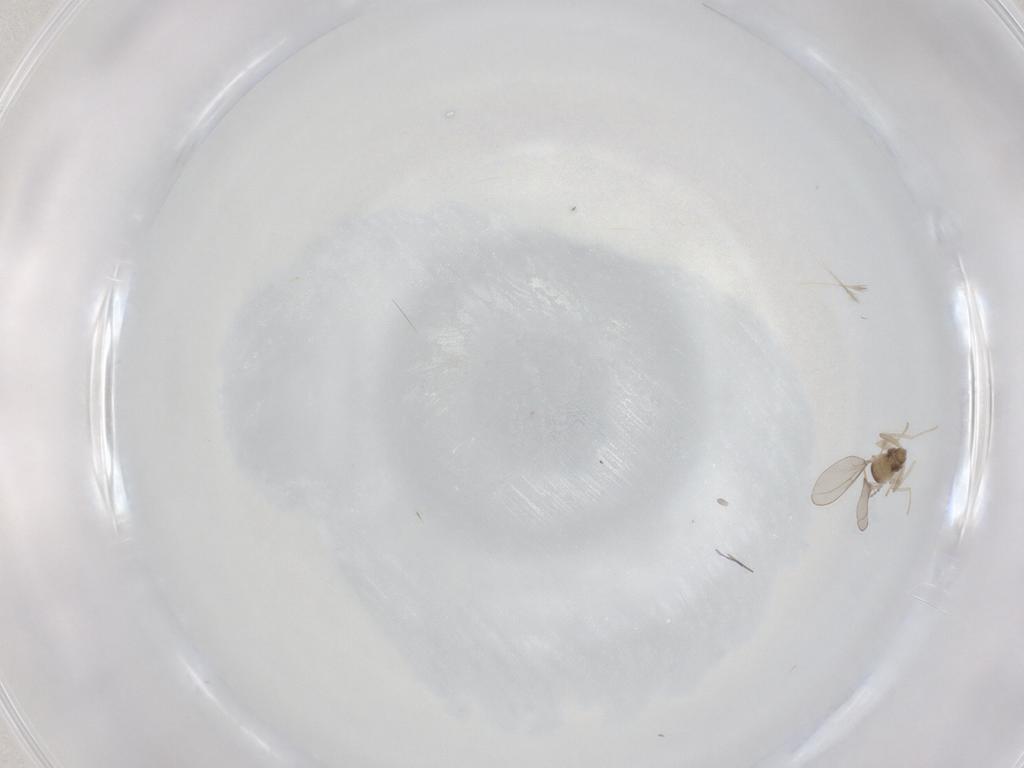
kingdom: Animalia
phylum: Arthropoda
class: Insecta
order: Diptera
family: Cecidomyiidae
